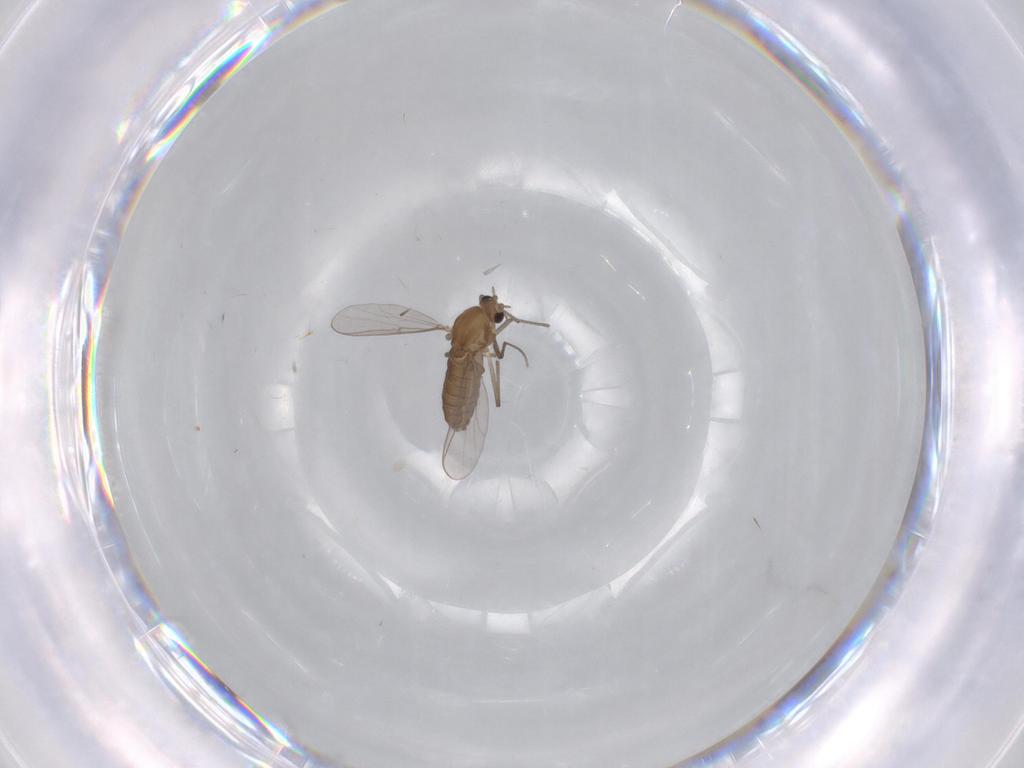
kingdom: Animalia
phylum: Arthropoda
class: Insecta
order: Diptera
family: Chironomidae
